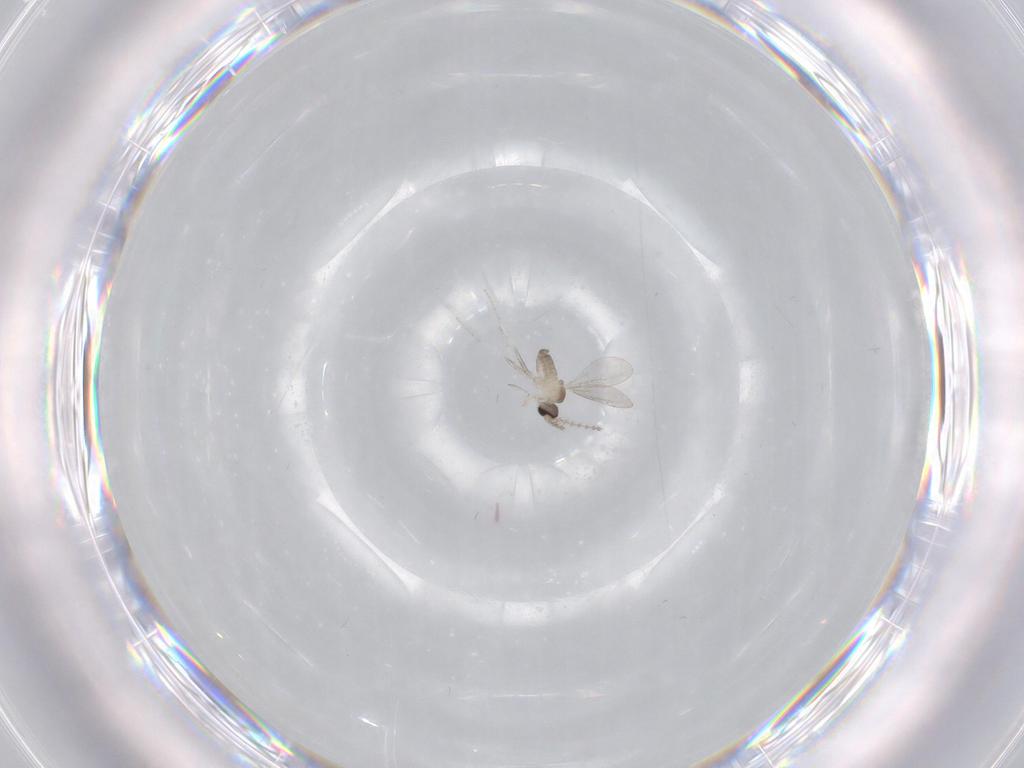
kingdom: Animalia
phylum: Arthropoda
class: Insecta
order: Diptera
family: Cecidomyiidae
